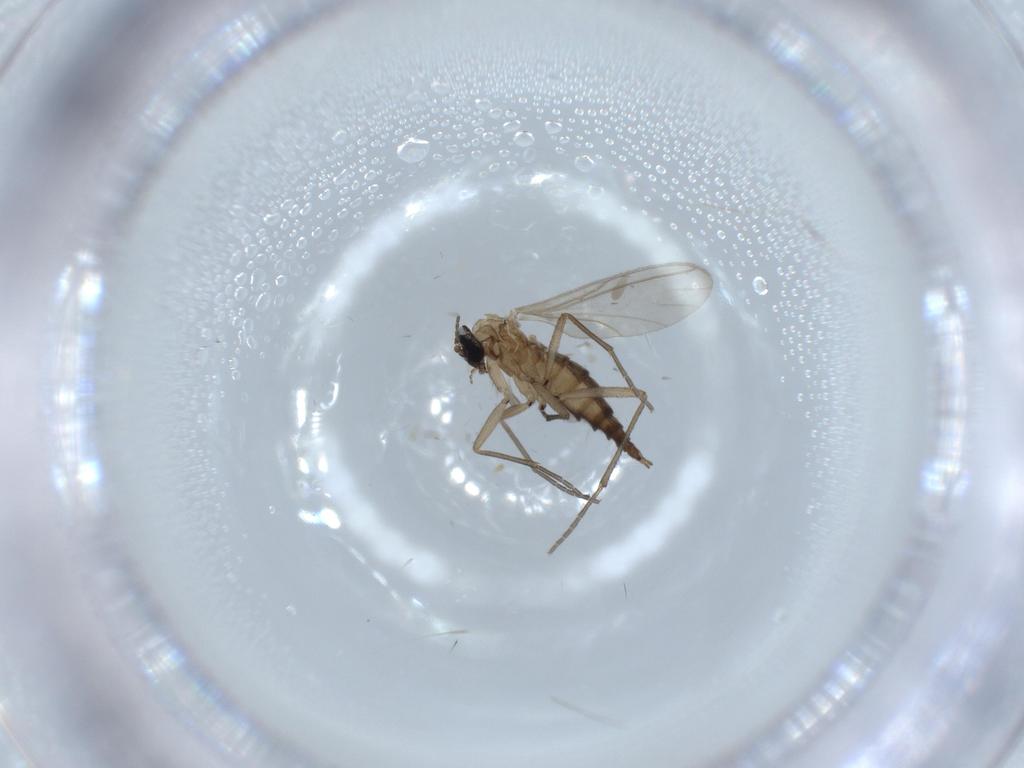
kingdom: Animalia
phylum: Arthropoda
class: Insecta
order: Diptera
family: Sciaridae
